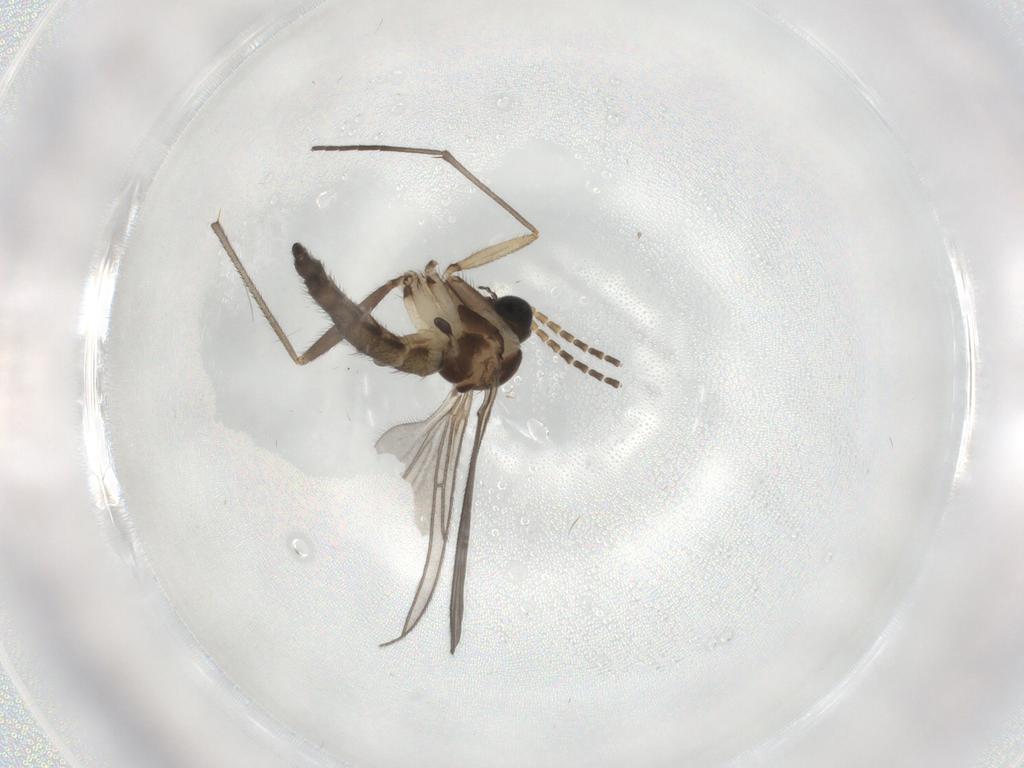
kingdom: Animalia
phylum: Arthropoda
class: Insecta
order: Diptera
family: Sciaridae
